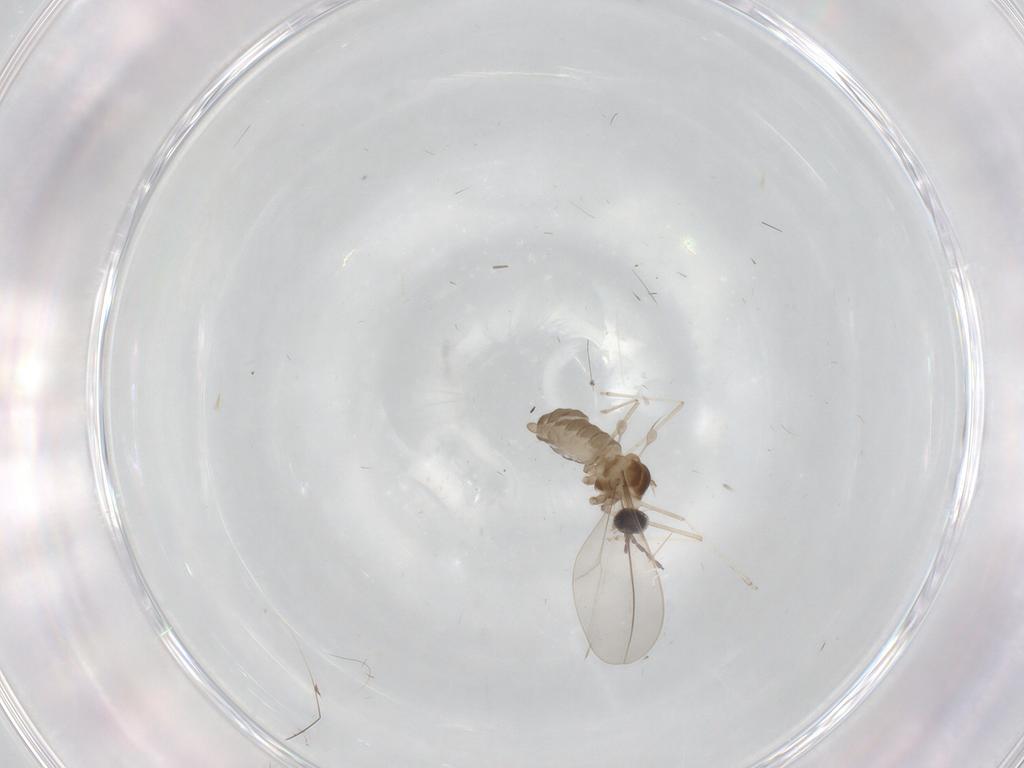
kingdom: Animalia
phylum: Arthropoda
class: Insecta
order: Diptera
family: Cecidomyiidae
